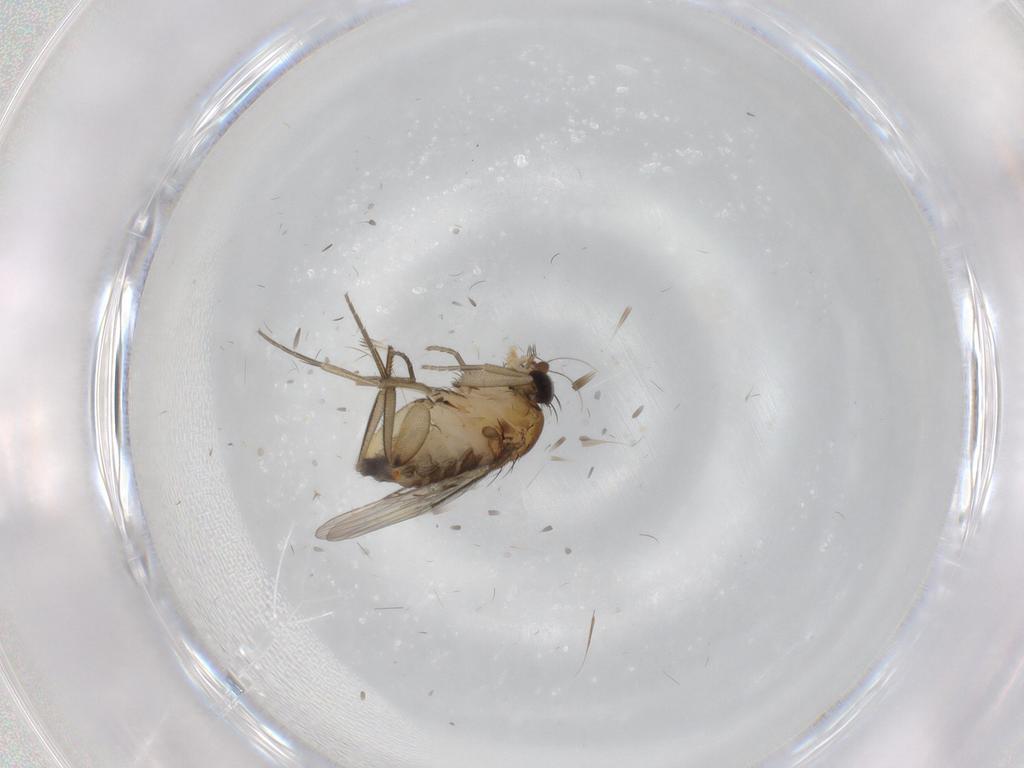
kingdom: Animalia
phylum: Arthropoda
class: Insecta
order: Diptera
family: Phoridae
